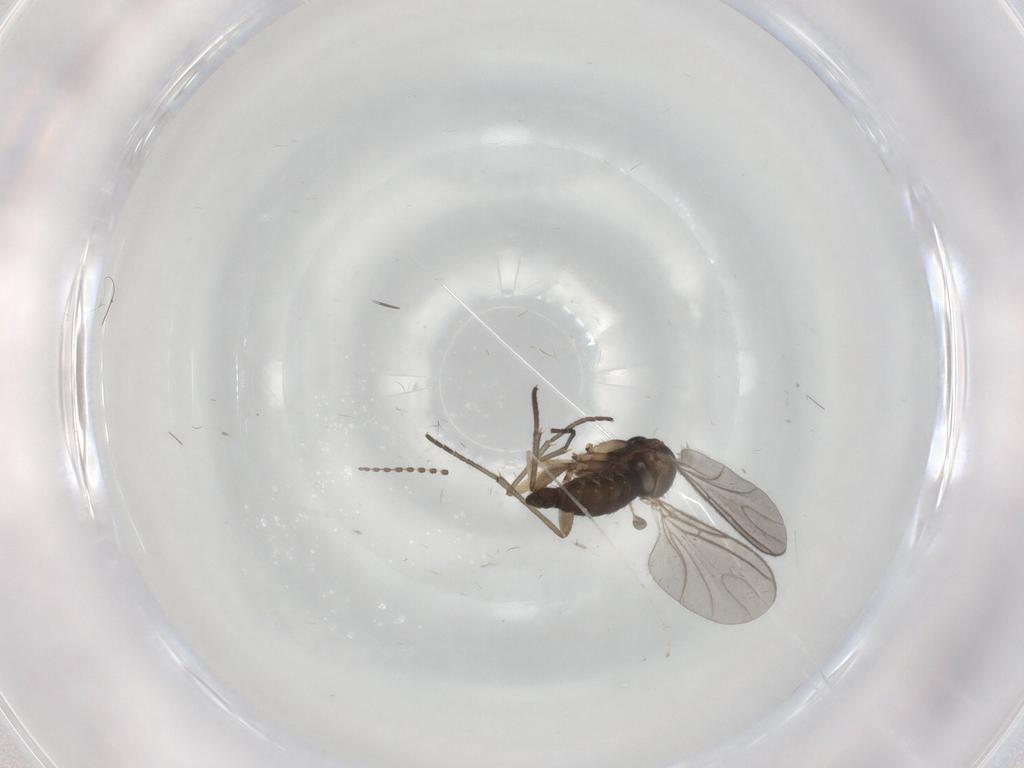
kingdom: Animalia
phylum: Arthropoda
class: Insecta
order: Diptera
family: Sciaridae
